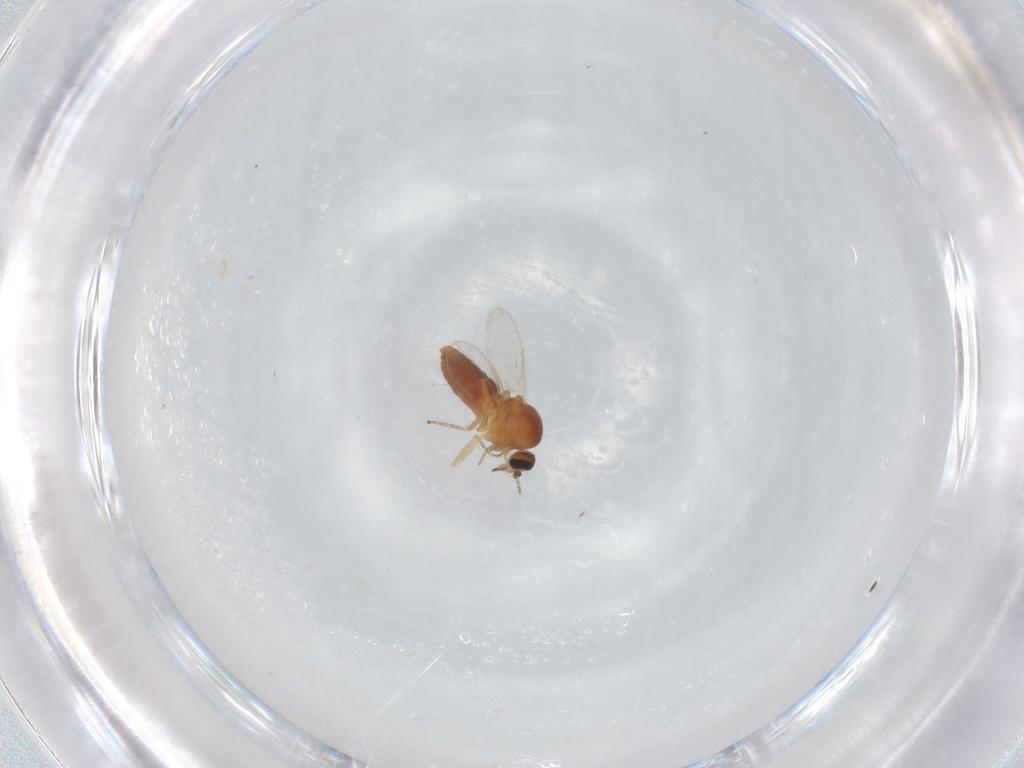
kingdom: Animalia
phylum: Arthropoda
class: Insecta
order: Diptera
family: Ceratopogonidae
